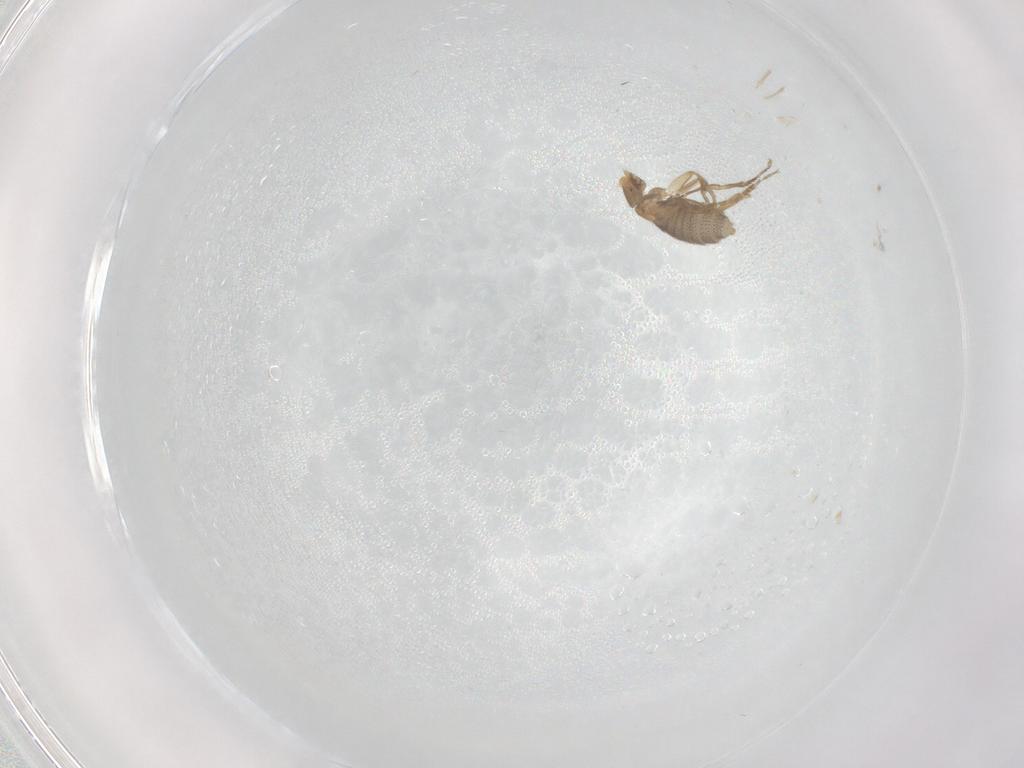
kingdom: Animalia
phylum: Arthropoda
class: Insecta
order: Diptera
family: Phoridae
